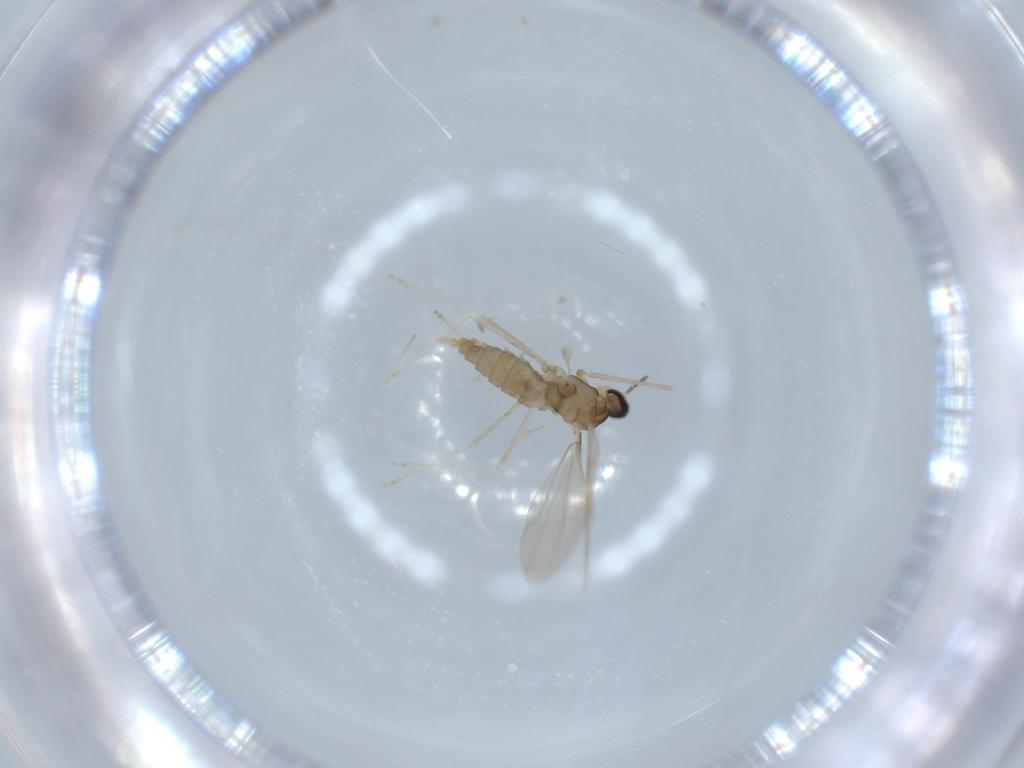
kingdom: Animalia
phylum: Arthropoda
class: Insecta
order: Diptera
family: Cecidomyiidae
